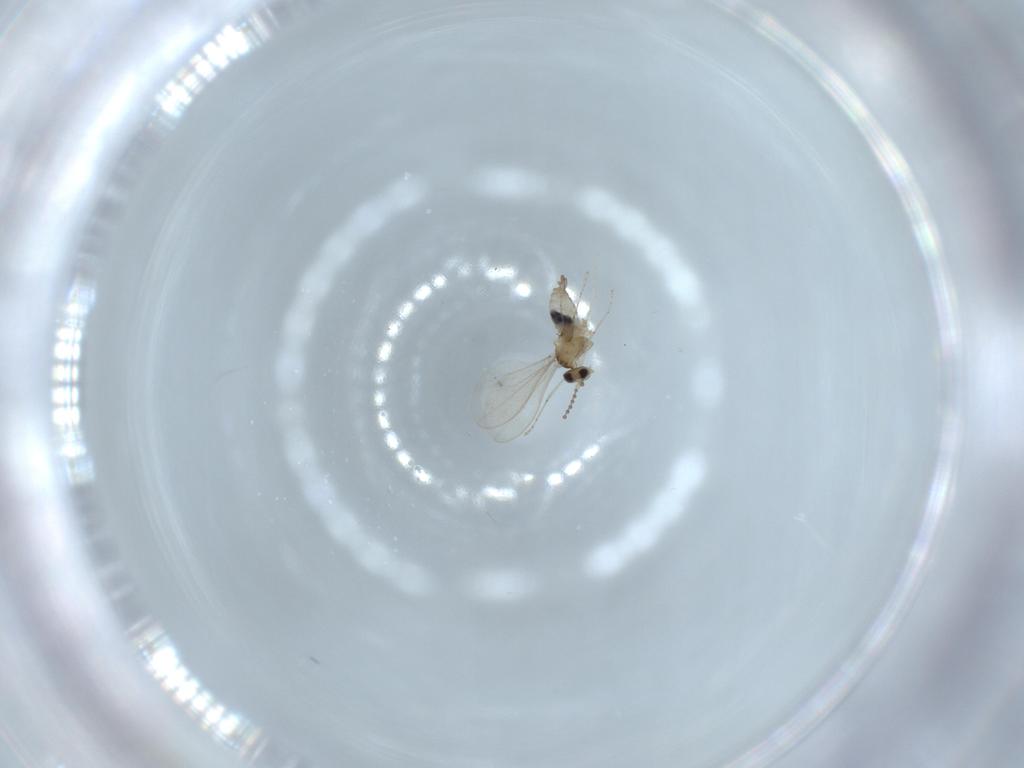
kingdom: Animalia
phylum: Arthropoda
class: Insecta
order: Diptera
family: Cecidomyiidae
